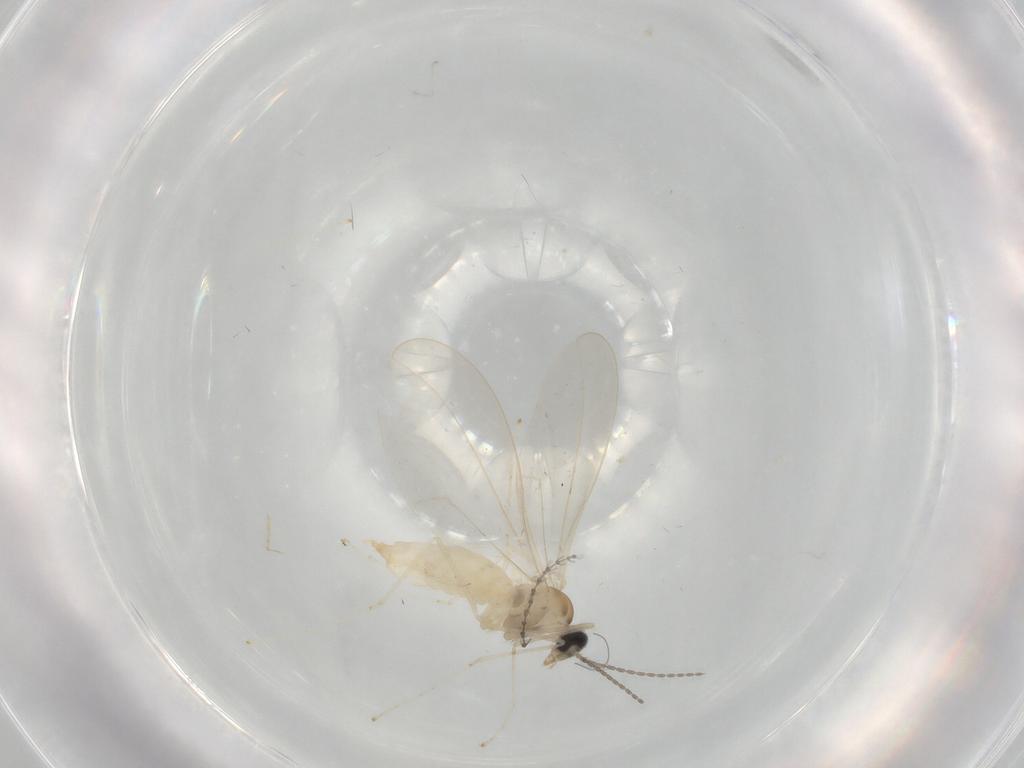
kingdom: Animalia
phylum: Arthropoda
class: Insecta
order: Diptera
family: Cecidomyiidae
